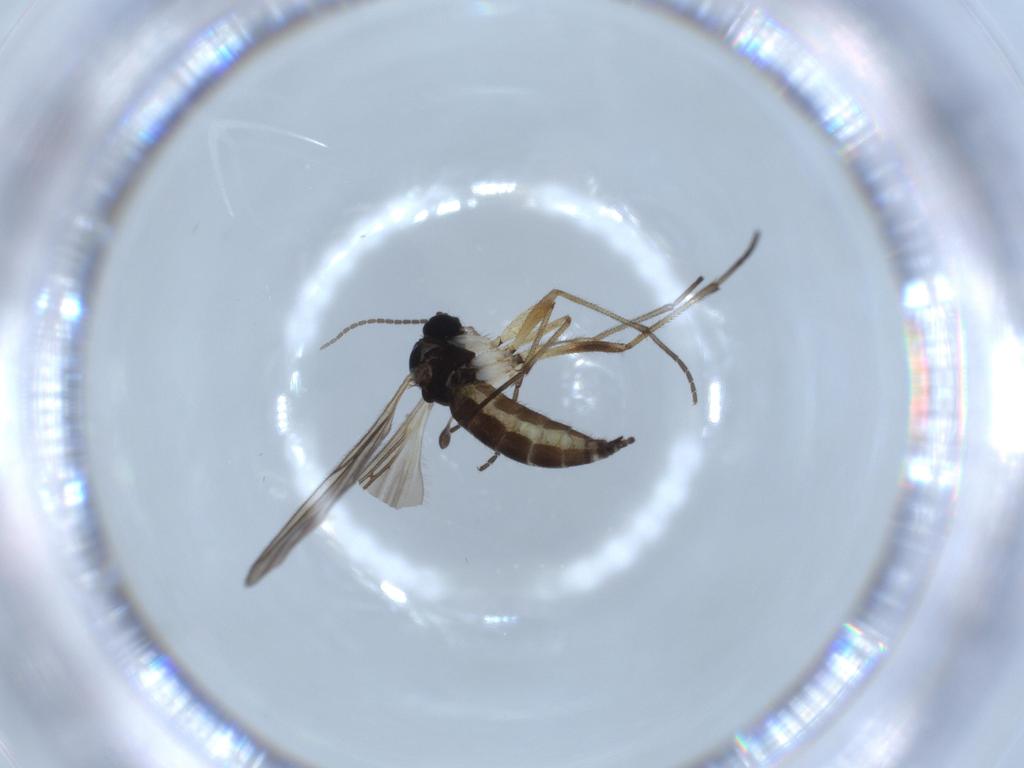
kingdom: Animalia
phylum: Arthropoda
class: Insecta
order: Diptera
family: Sciaridae
